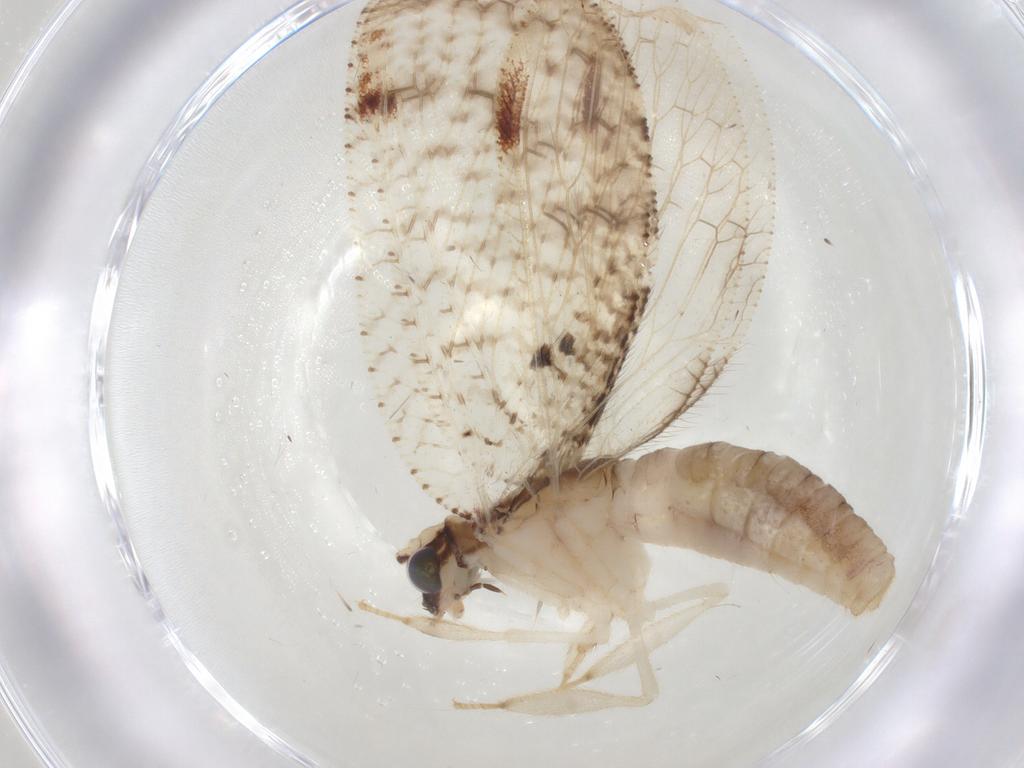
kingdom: Animalia
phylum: Arthropoda
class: Insecta
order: Neuroptera
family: Hemerobiidae
